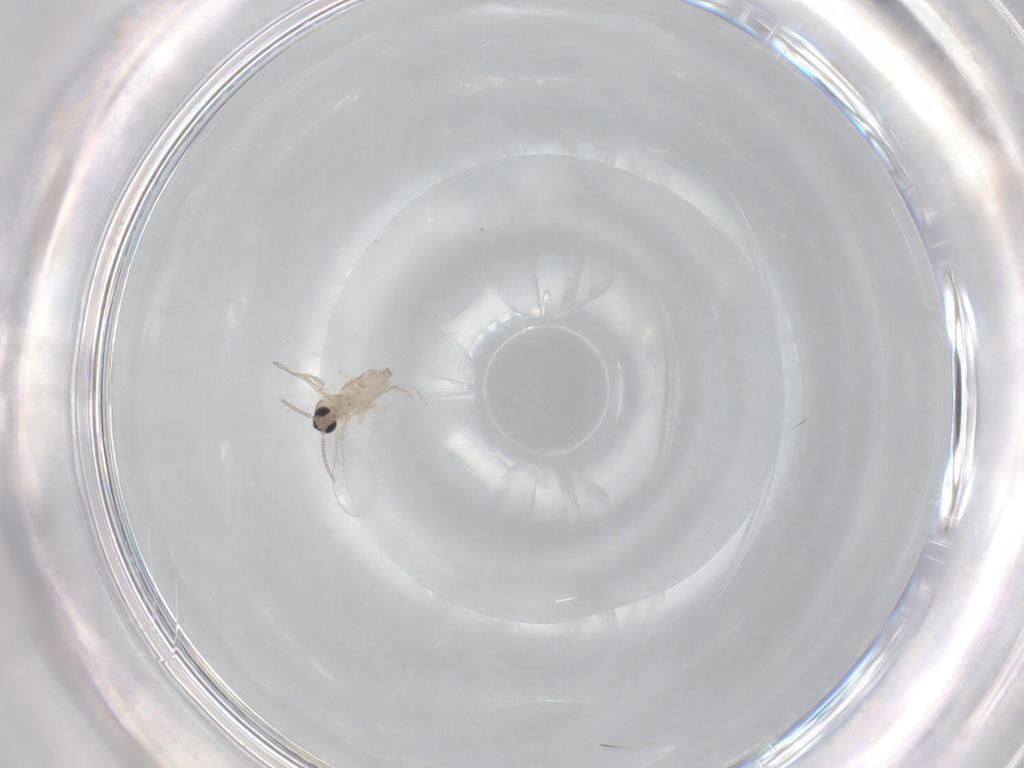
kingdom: Animalia
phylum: Arthropoda
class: Insecta
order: Diptera
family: Cecidomyiidae
